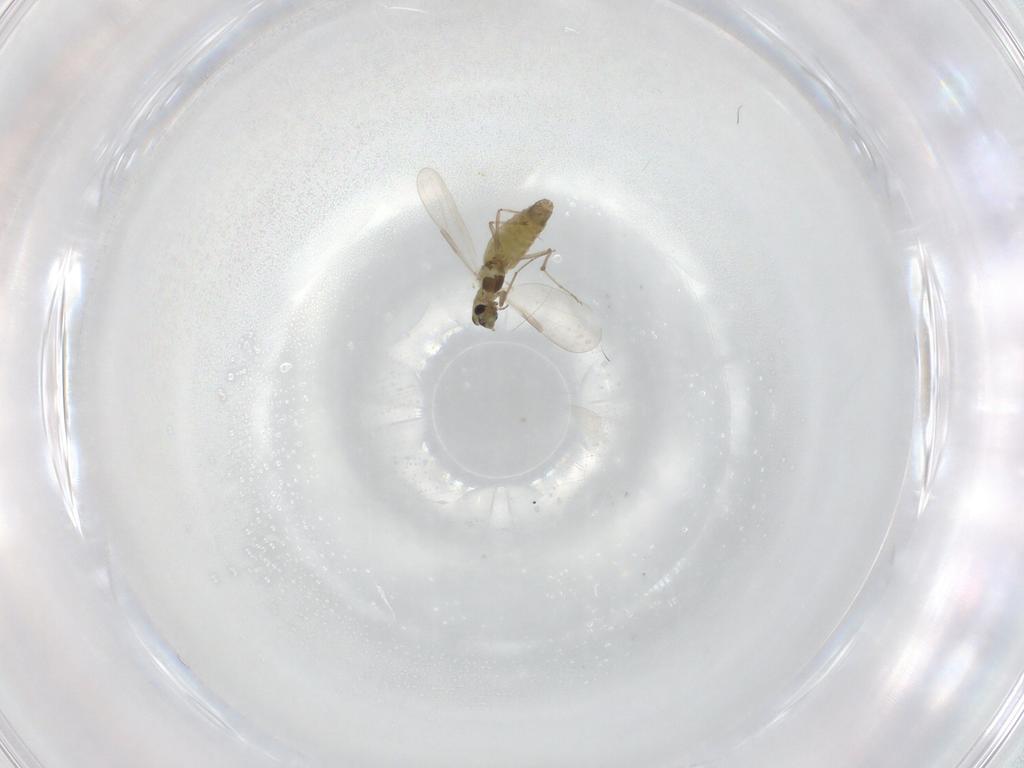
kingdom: Animalia
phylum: Arthropoda
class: Insecta
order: Diptera
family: Chironomidae
